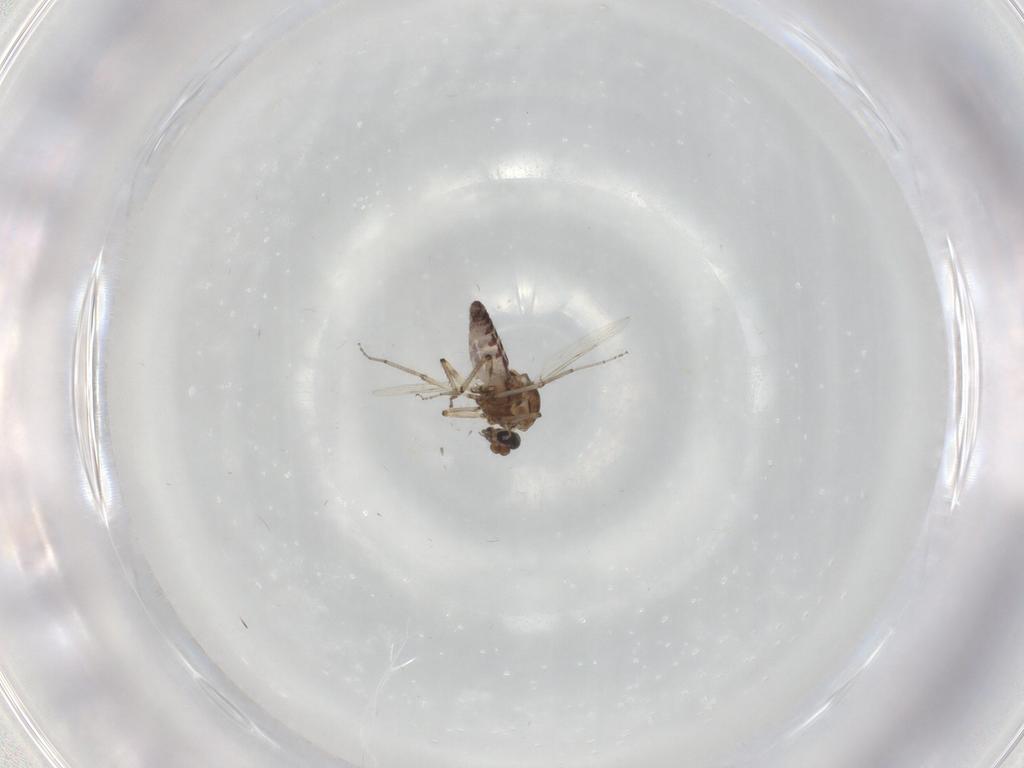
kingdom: Animalia
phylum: Arthropoda
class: Insecta
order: Diptera
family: Ceratopogonidae
